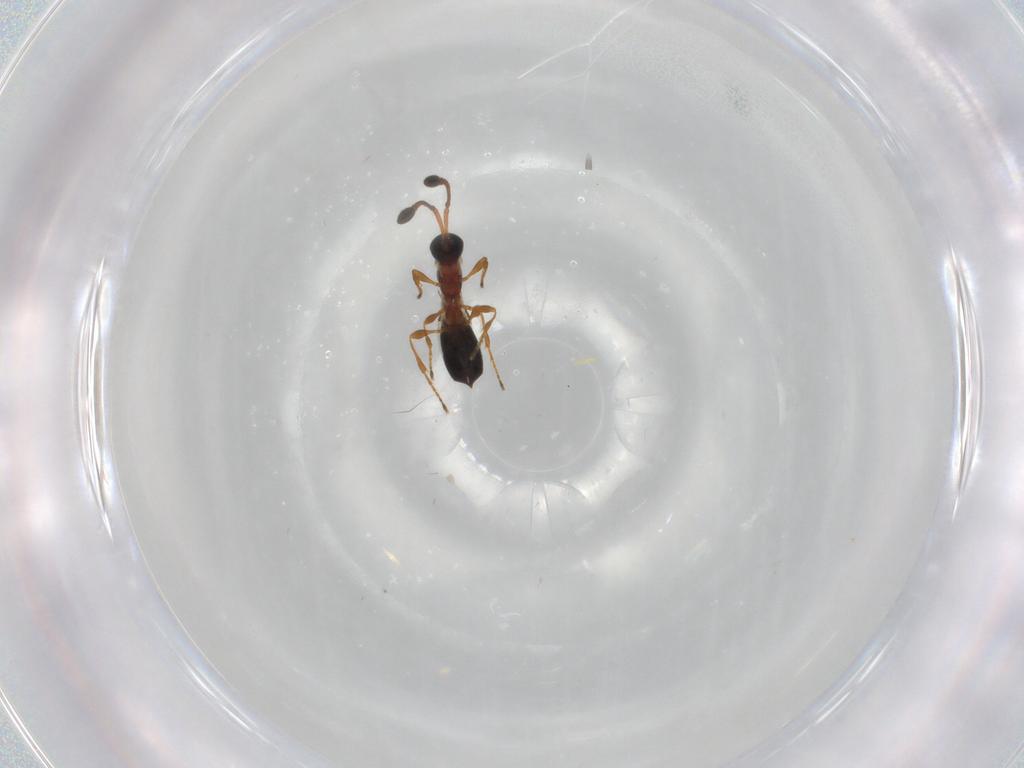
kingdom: Animalia
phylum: Arthropoda
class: Insecta
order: Hymenoptera
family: Diapriidae
